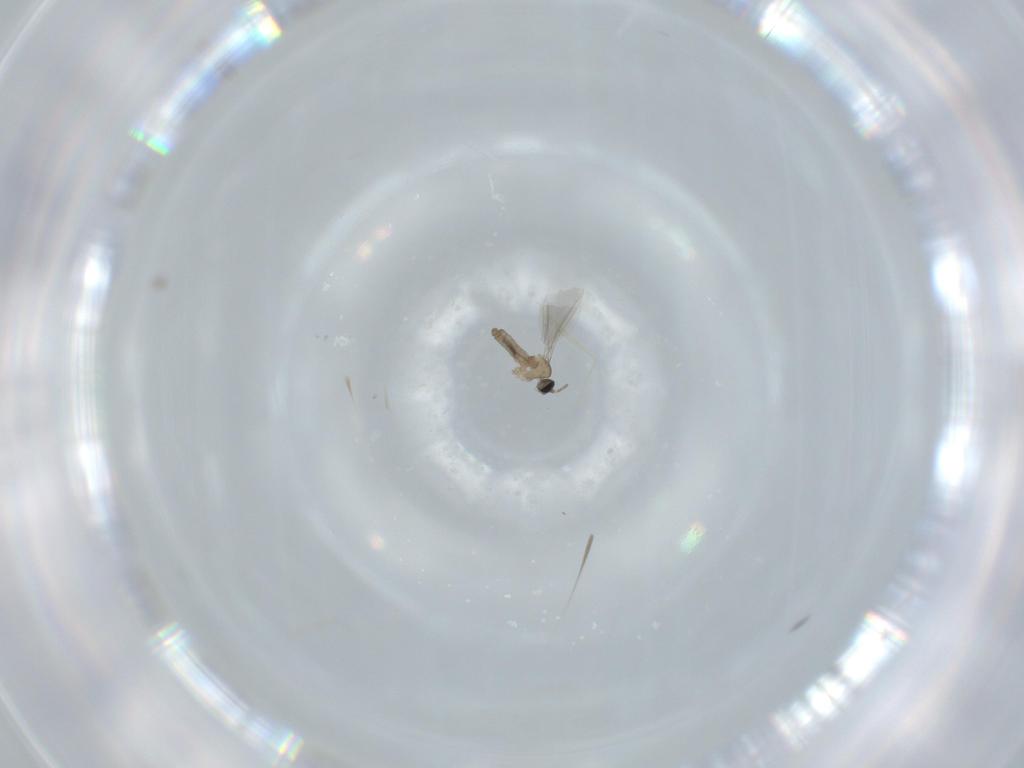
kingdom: Animalia
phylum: Arthropoda
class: Insecta
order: Diptera
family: Cecidomyiidae
